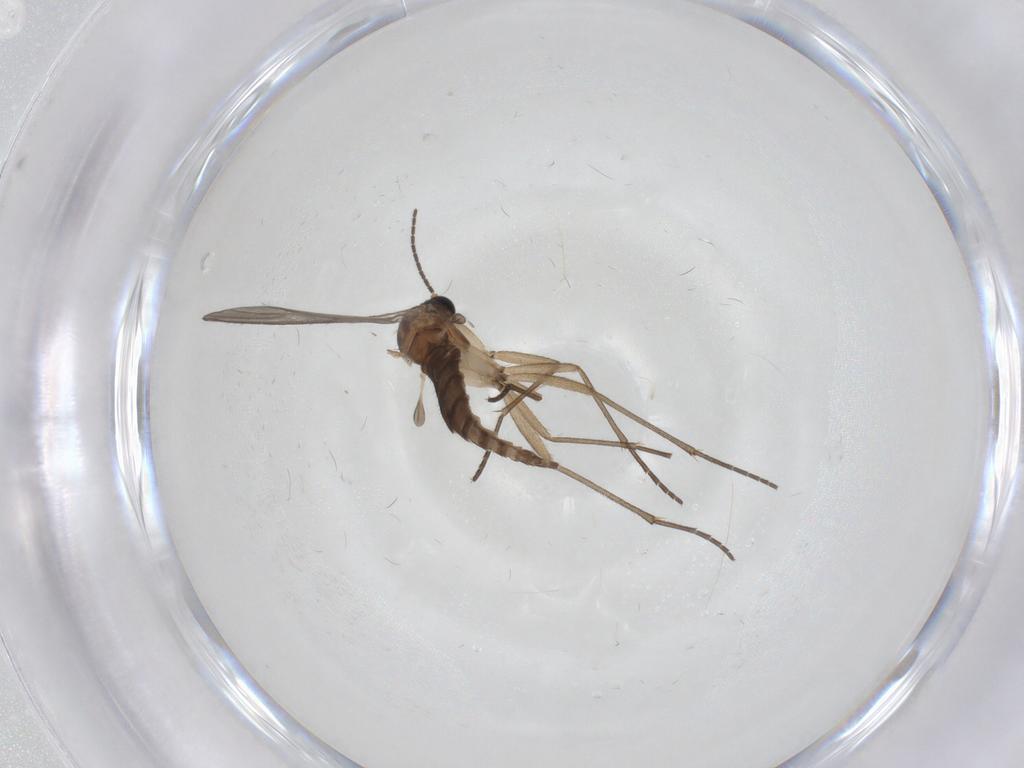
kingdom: Animalia
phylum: Arthropoda
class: Insecta
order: Diptera
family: Sciaridae
